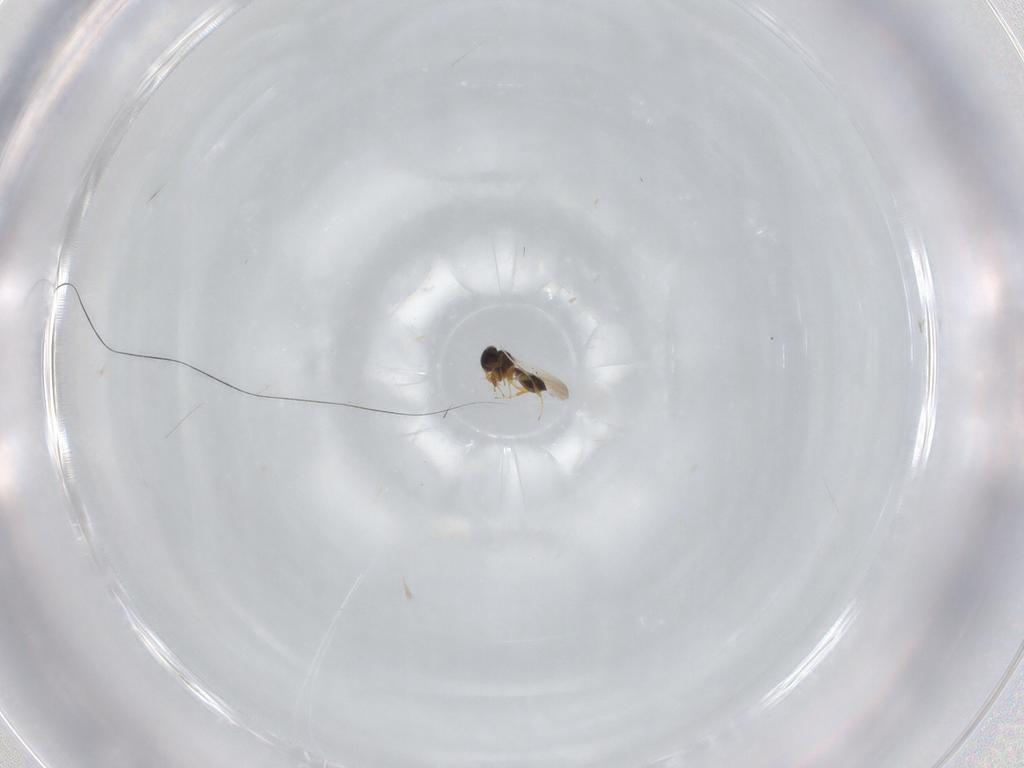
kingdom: Animalia
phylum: Arthropoda
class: Insecta
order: Hymenoptera
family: Platygastridae
